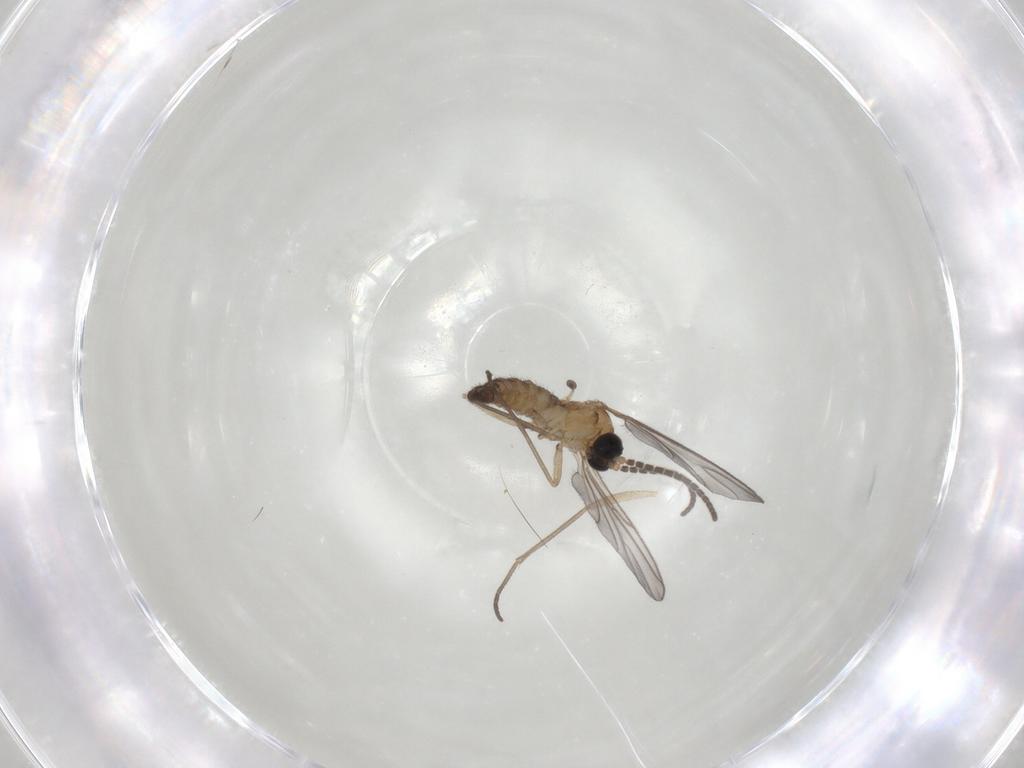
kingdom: Animalia
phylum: Arthropoda
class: Insecta
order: Diptera
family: Sciaridae
